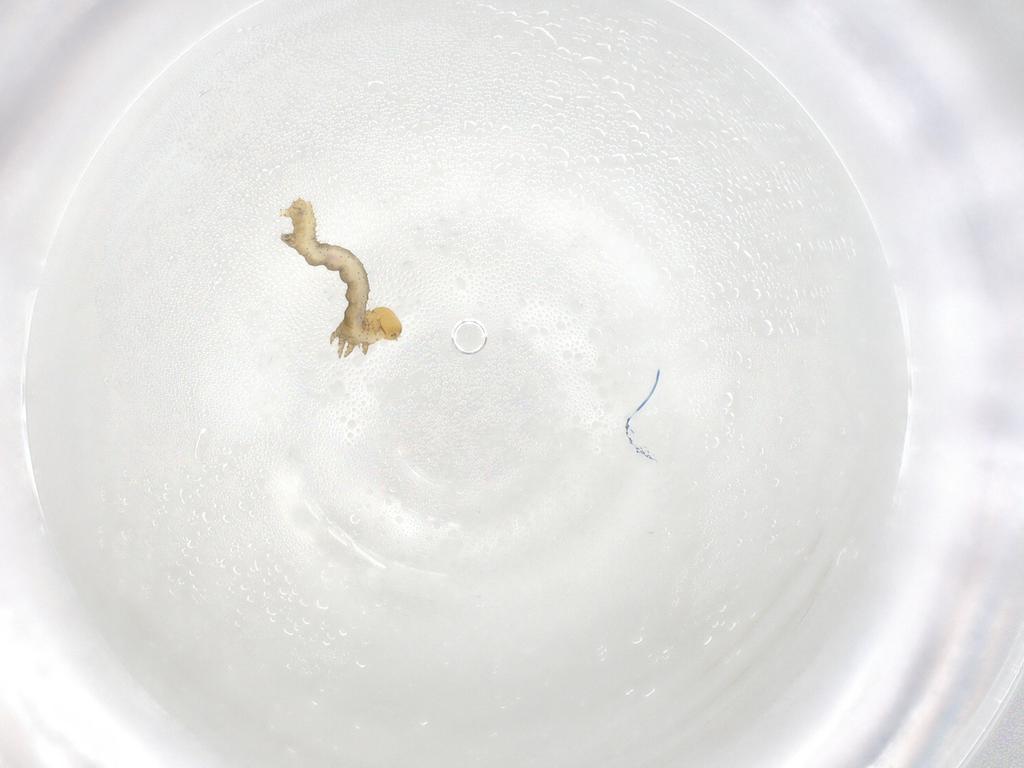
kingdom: Animalia
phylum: Arthropoda
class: Insecta
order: Lepidoptera
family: Geometridae
